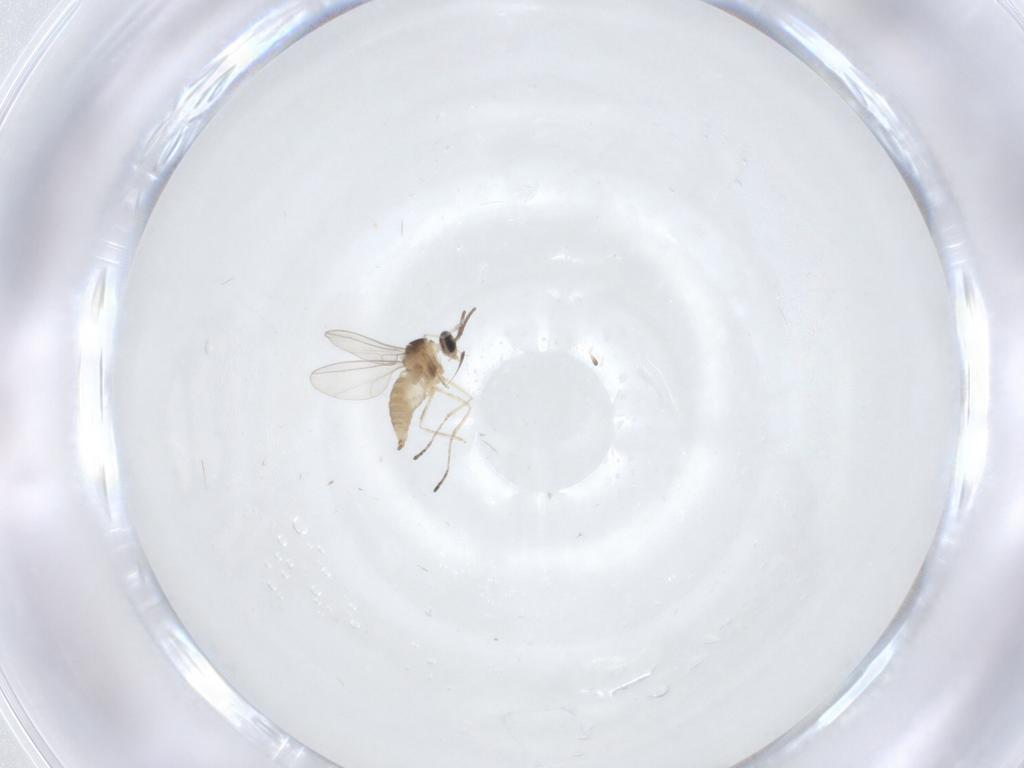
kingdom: Animalia
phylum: Arthropoda
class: Insecta
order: Diptera
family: Cecidomyiidae
